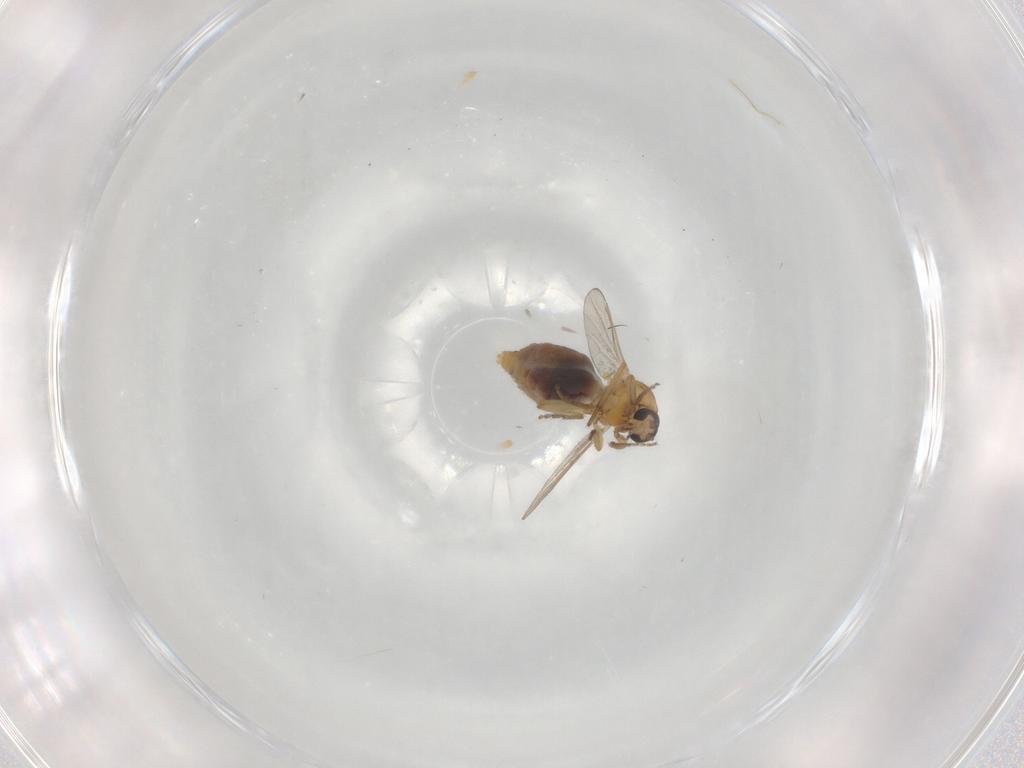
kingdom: Animalia
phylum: Arthropoda
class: Insecta
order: Diptera
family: Ceratopogonidae
